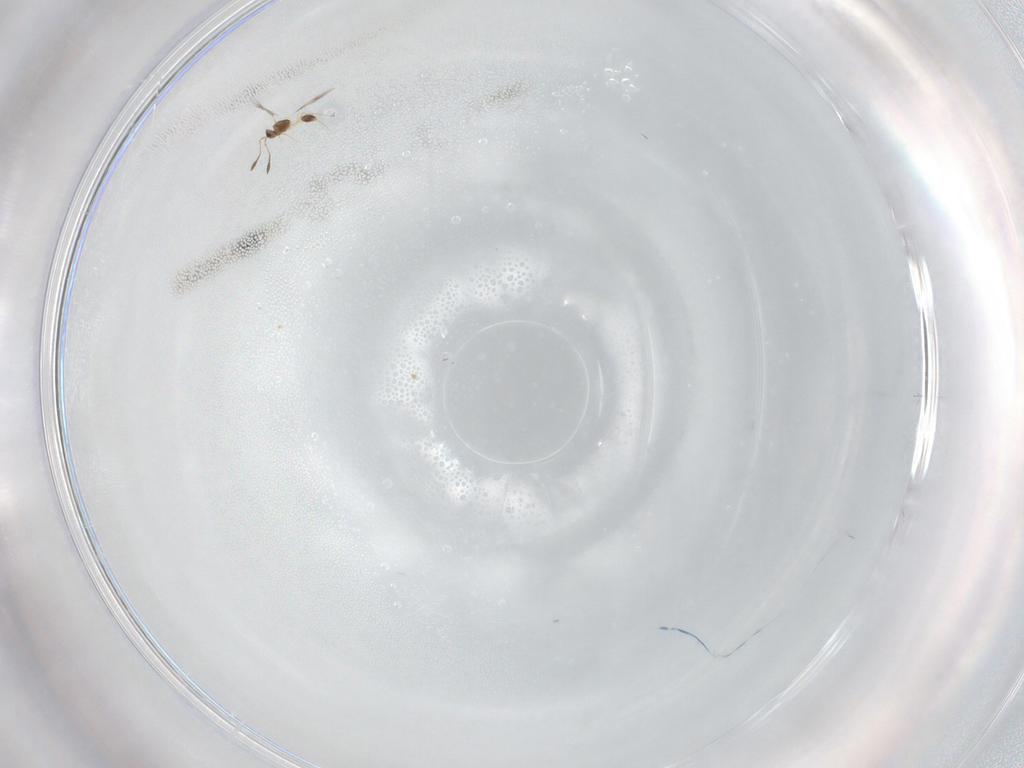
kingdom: Animalia
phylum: Arthropoda
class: Insecta
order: Hymenoptera
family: Mymarommatidae
